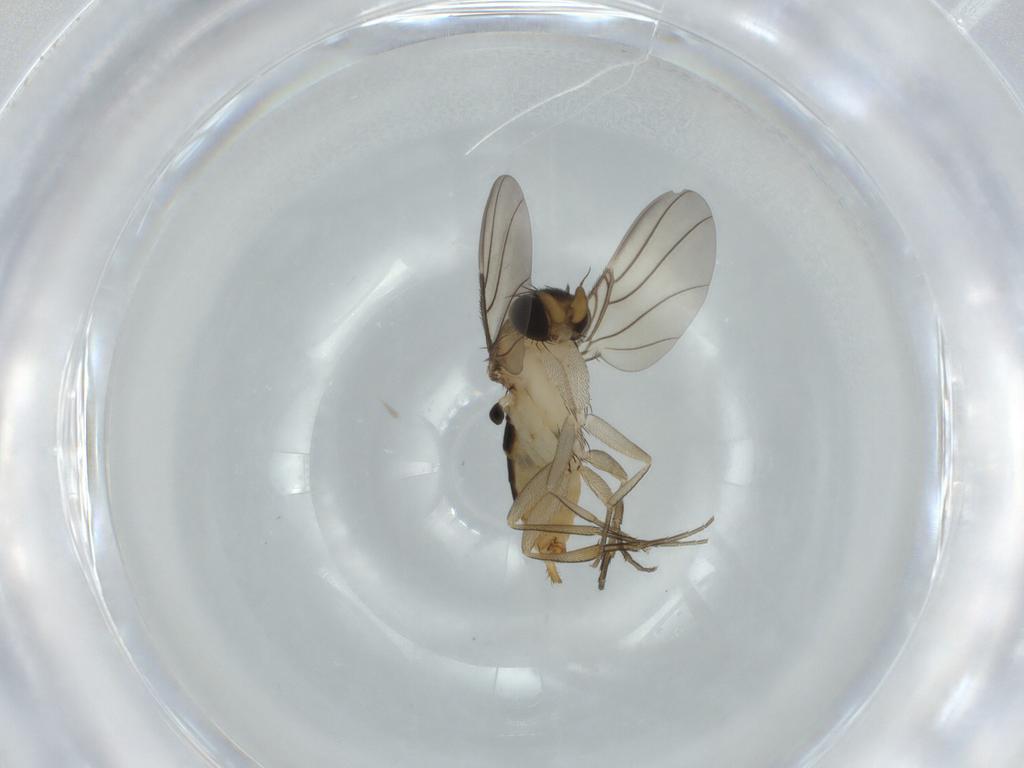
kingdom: Animalia
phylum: Arthropoda
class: Insecta
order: Diptera
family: Phoridae
